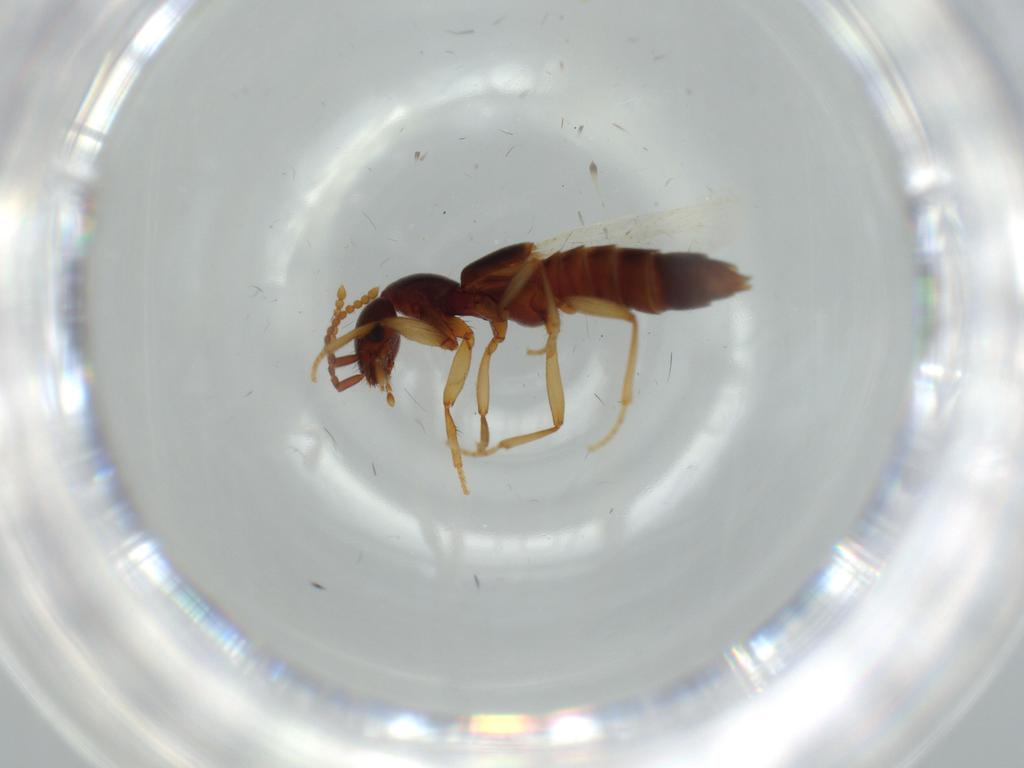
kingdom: Animalia
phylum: Arthropoda
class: Insecta
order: Coleoptera
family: Staphylinidae
